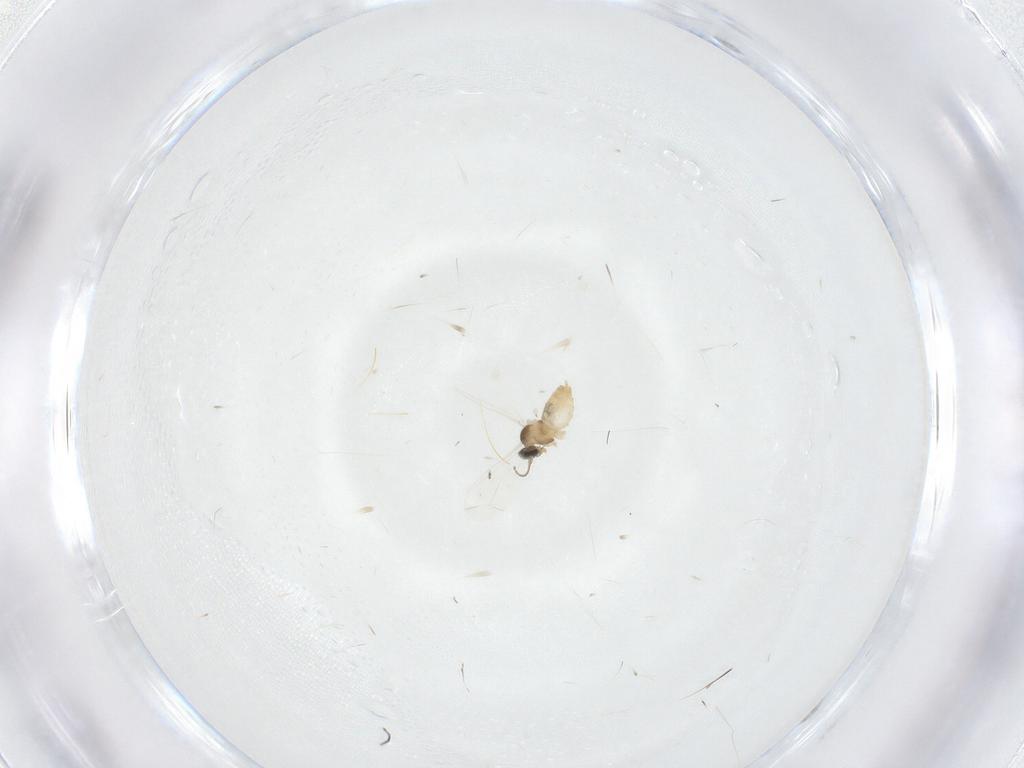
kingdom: Animalia
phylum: Arthropoda
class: Insecta
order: Diptera
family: Cecidomyiidae
